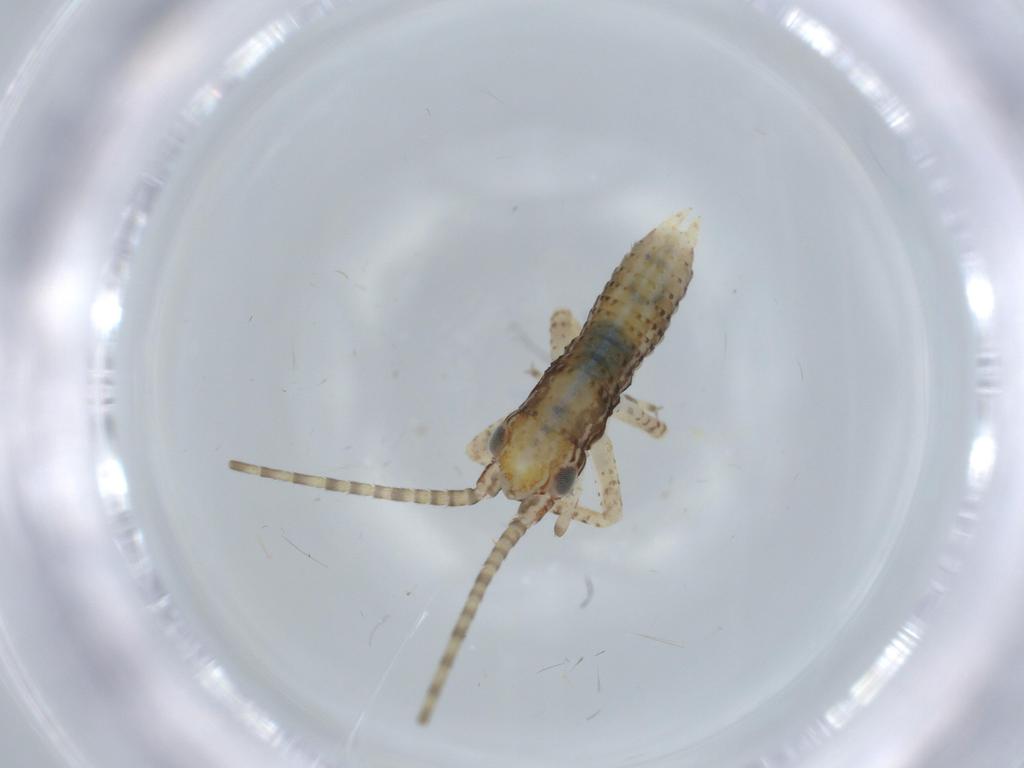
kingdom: Animalia
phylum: Arthropoda
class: Insecta
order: Orthoptera
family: Gryllidae
